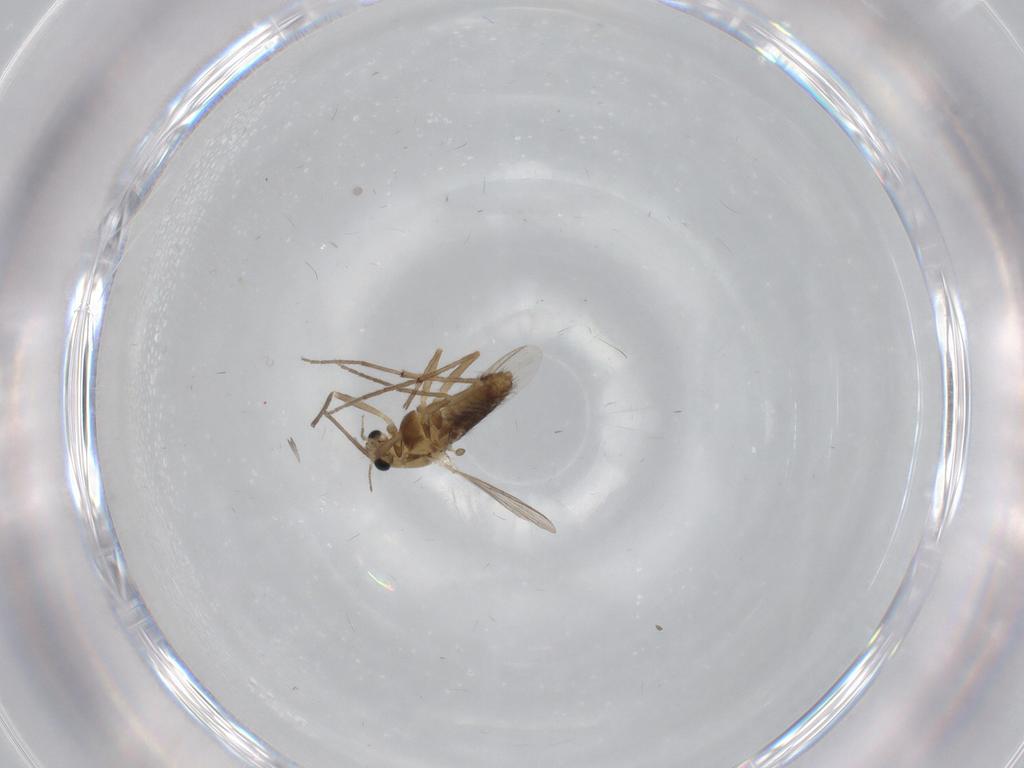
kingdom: Animalia
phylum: Arthropoda
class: Insecta
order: Diptera
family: Chironomidae
